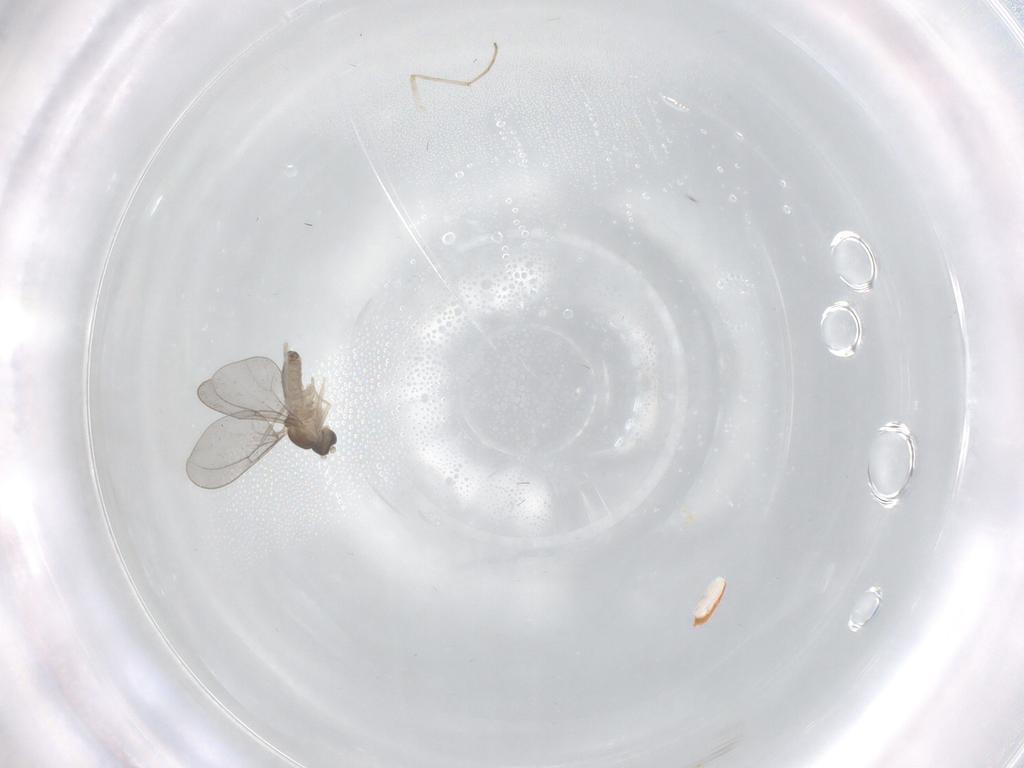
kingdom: Animalia
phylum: Arthropoda
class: Insecta
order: Diptera
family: Cecidomyiidae
